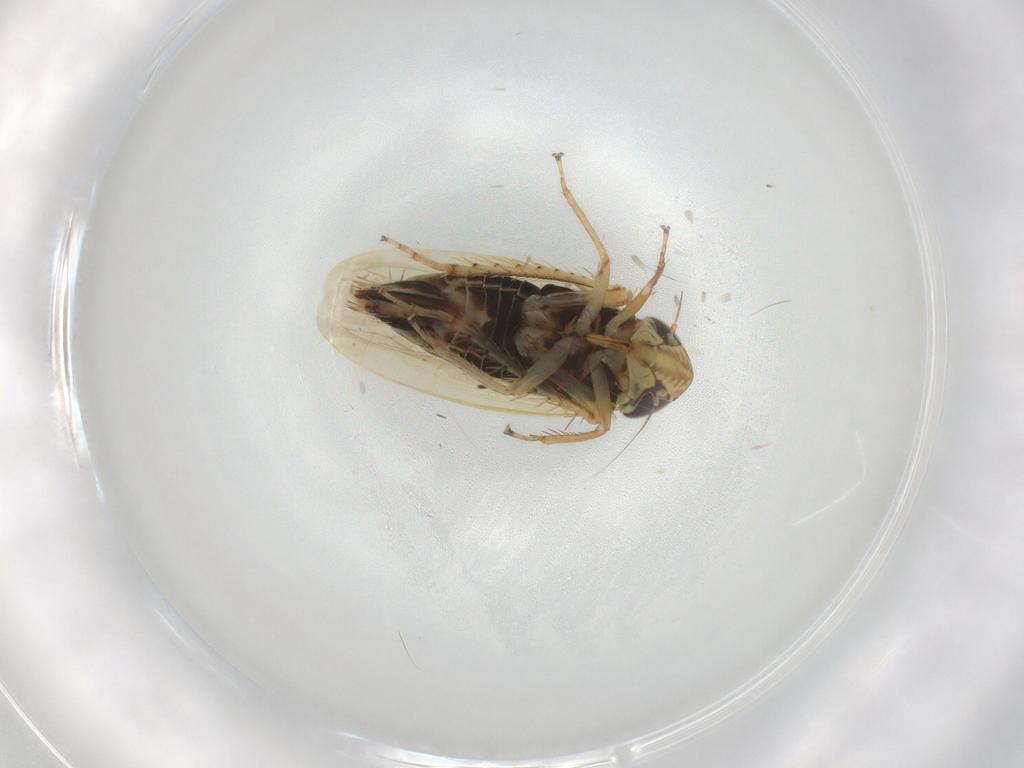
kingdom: Animalia
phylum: Arthropoda
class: Insecta
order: Hemiptera
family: Cicadellidae
